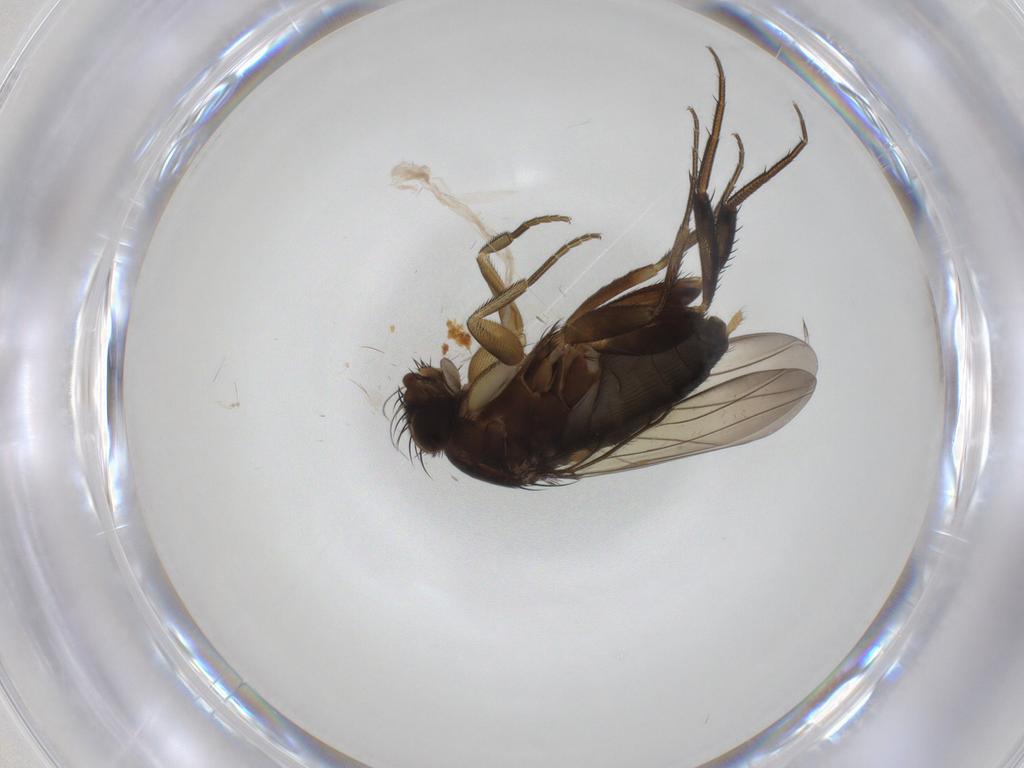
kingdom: Animalia
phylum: Arthropoda
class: Insecta
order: Diptera
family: Phoridae
